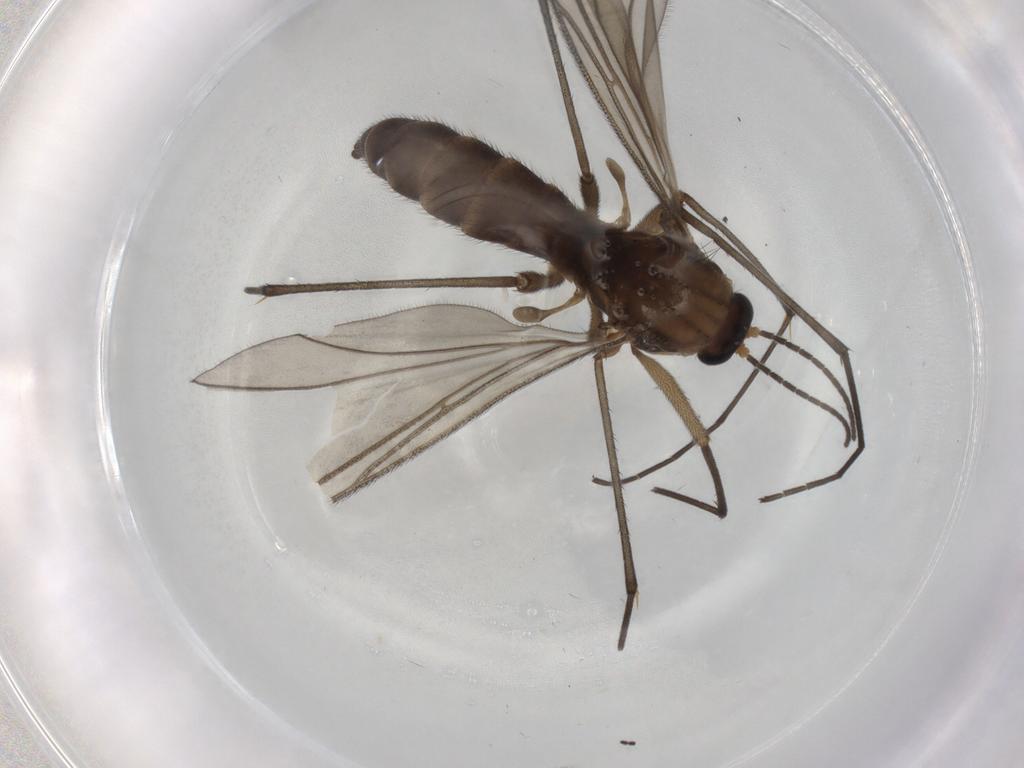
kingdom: Animalia
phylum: Arthropoda
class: Insecta
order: Diptera
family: Sciaridae
